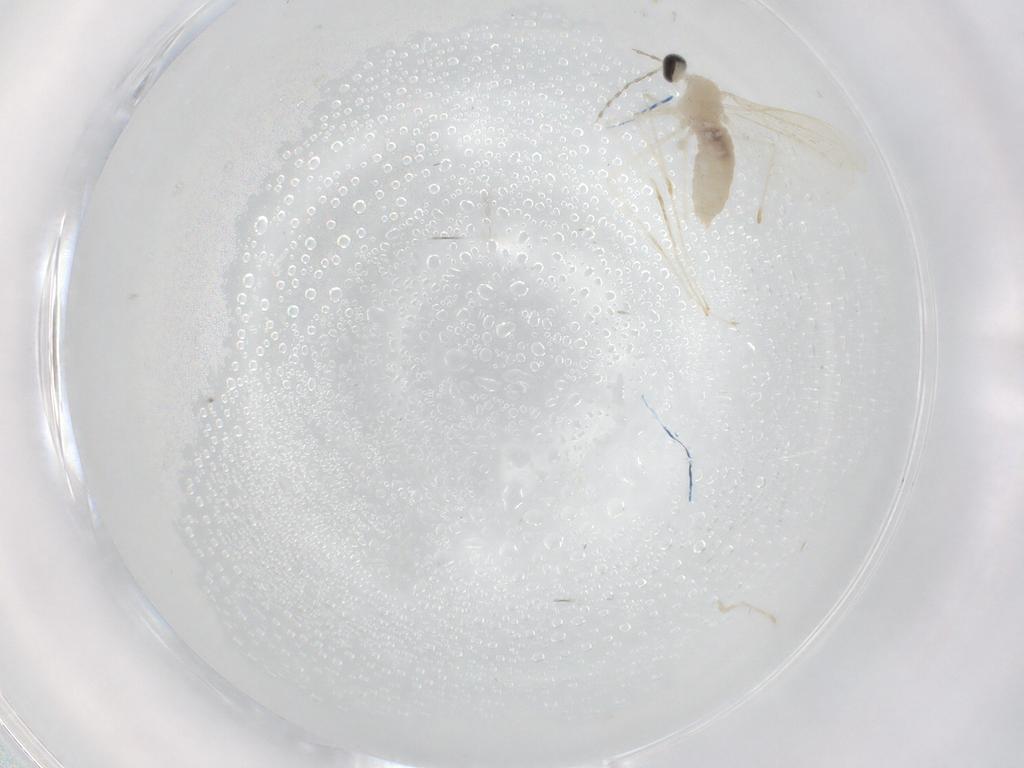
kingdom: Animalia
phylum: Arthropoda
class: Insecta
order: Diptera
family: Cecidomyiidae
